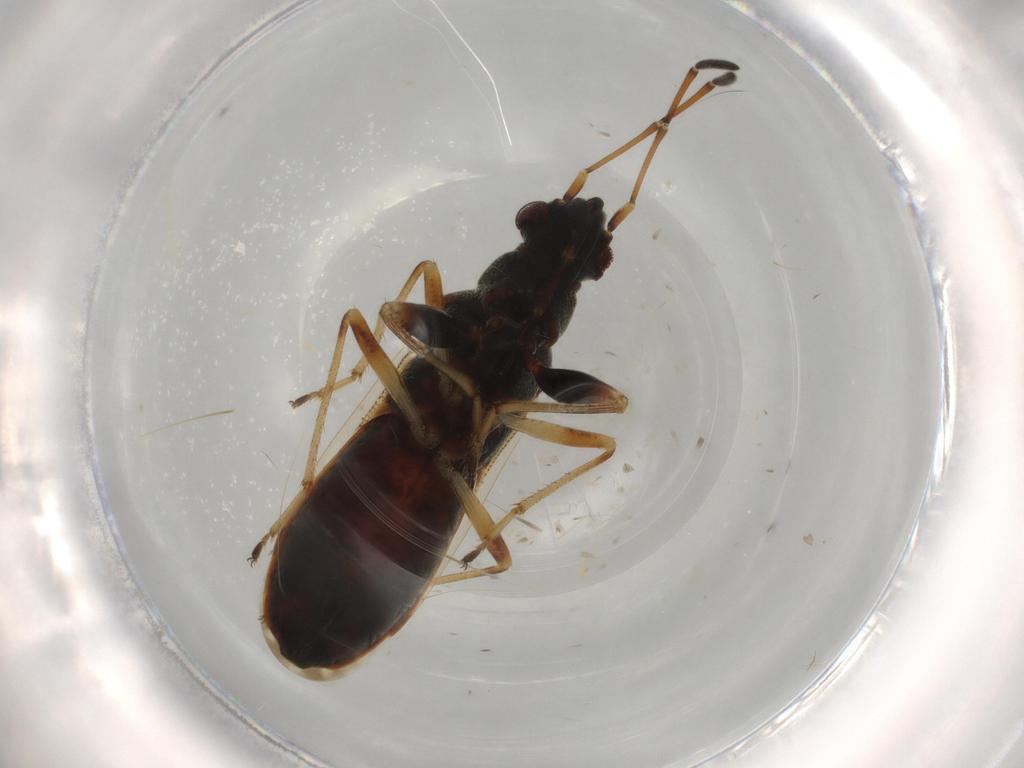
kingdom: Animalia
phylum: Arthropoda
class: Insecta
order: Hemiptera
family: Rhyparochromidae
